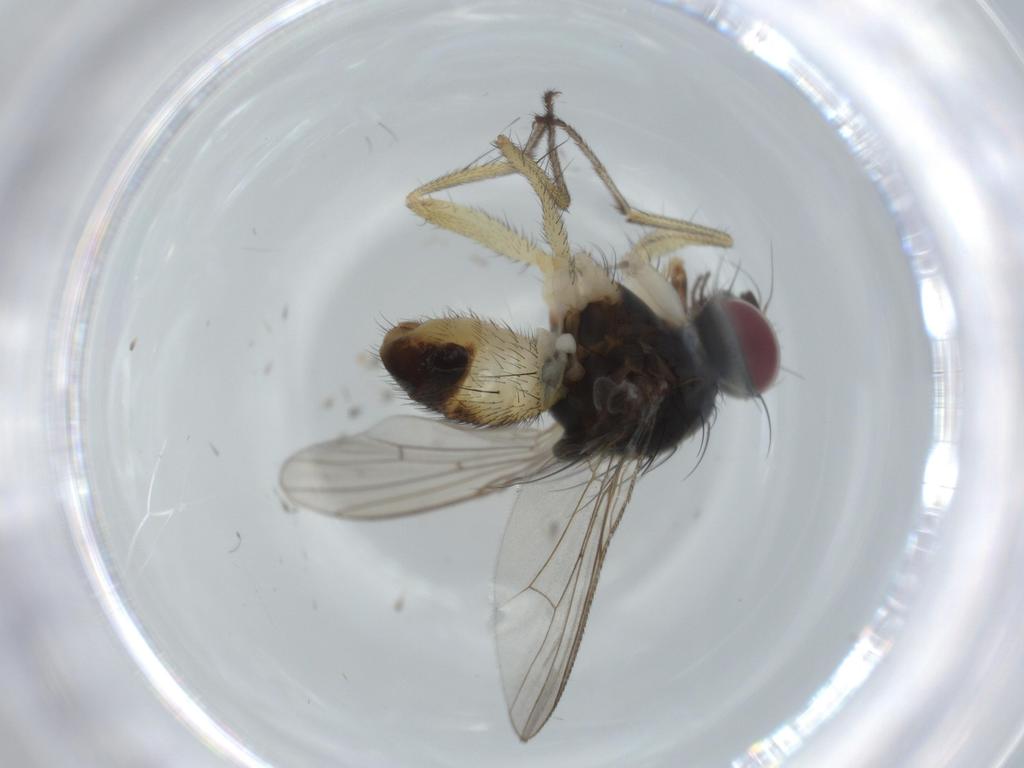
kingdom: Animalia
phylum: Arthropoda
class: Insecta
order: Diptera
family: Muscidae
